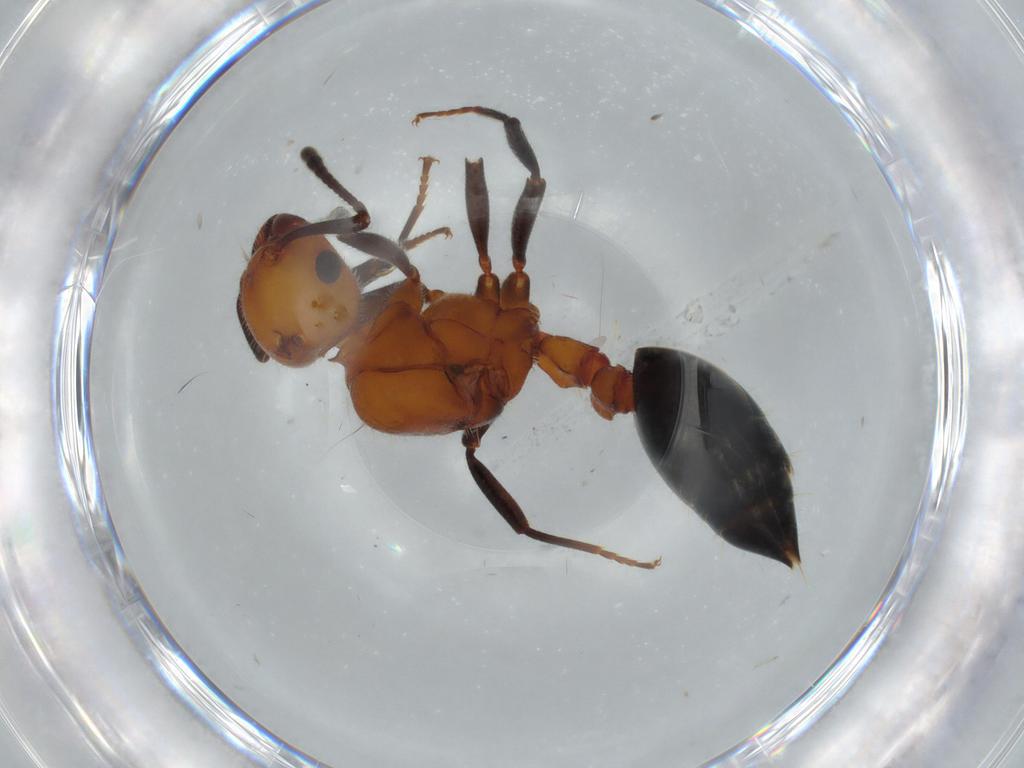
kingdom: Animalia
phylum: Arthropoda
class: Insecta
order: Hymenoptera
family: Formicidae
